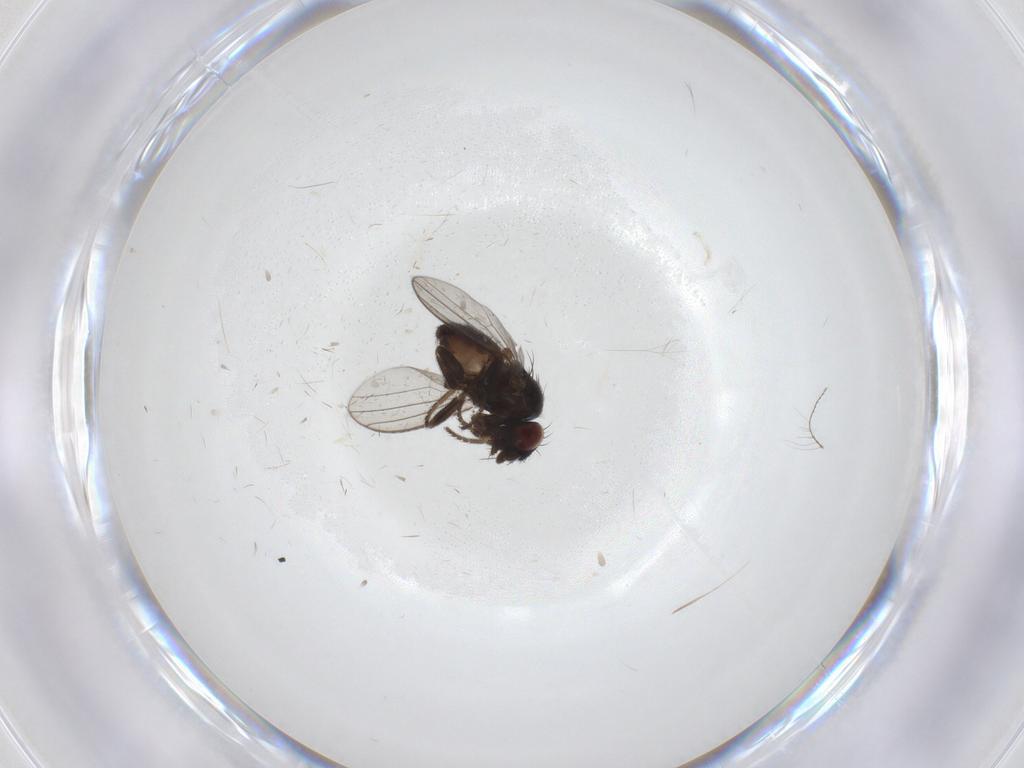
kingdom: Animalia
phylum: Arthropoda
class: Insecta
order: Diptera
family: Milichiidae
